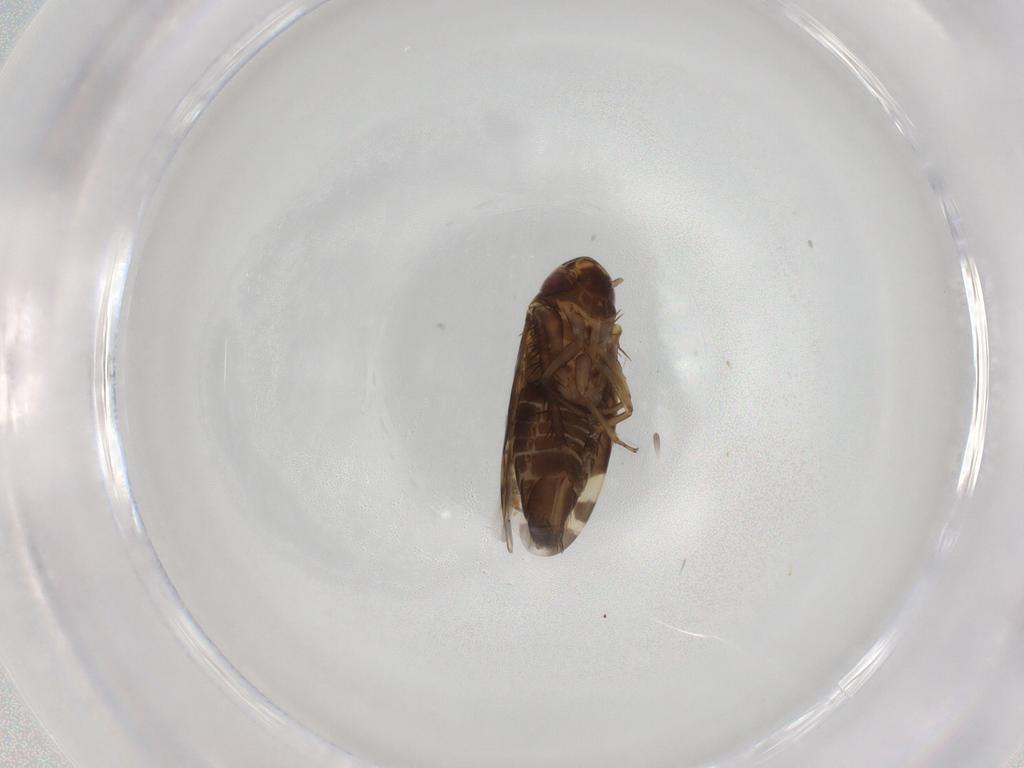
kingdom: Animalia
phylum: Arthropoda
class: Insecta
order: Hemiptera
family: Cicadellidae
